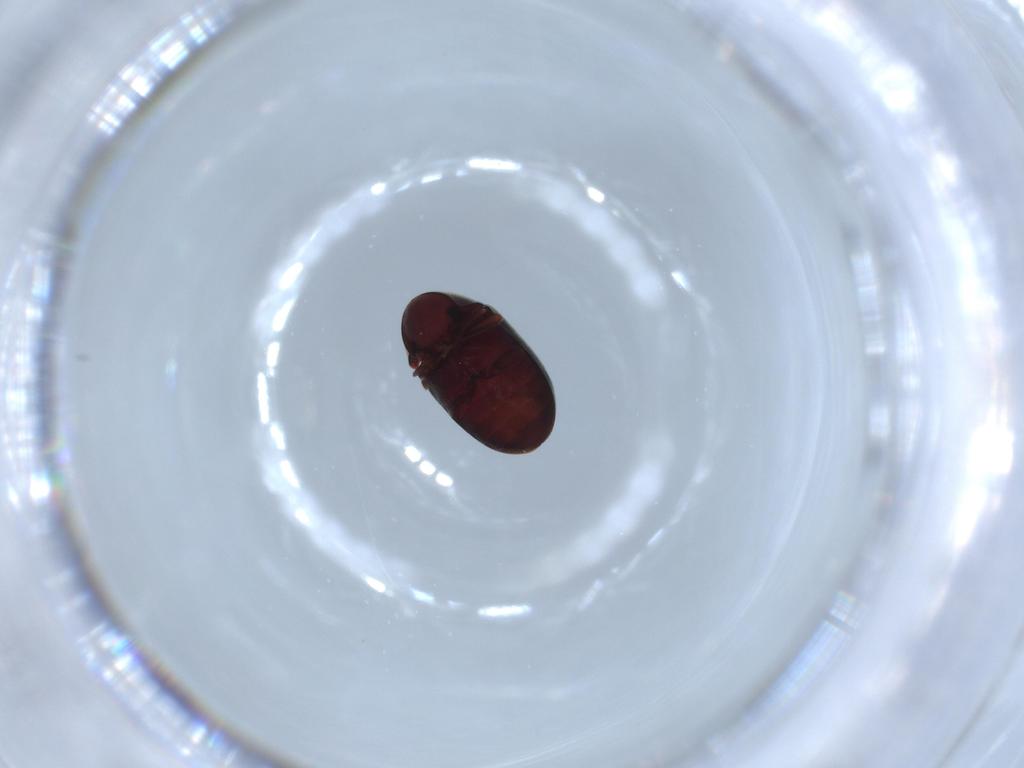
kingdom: Animalia
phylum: Arthropoda
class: Insecta
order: Coleoptera
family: Ptinidae
